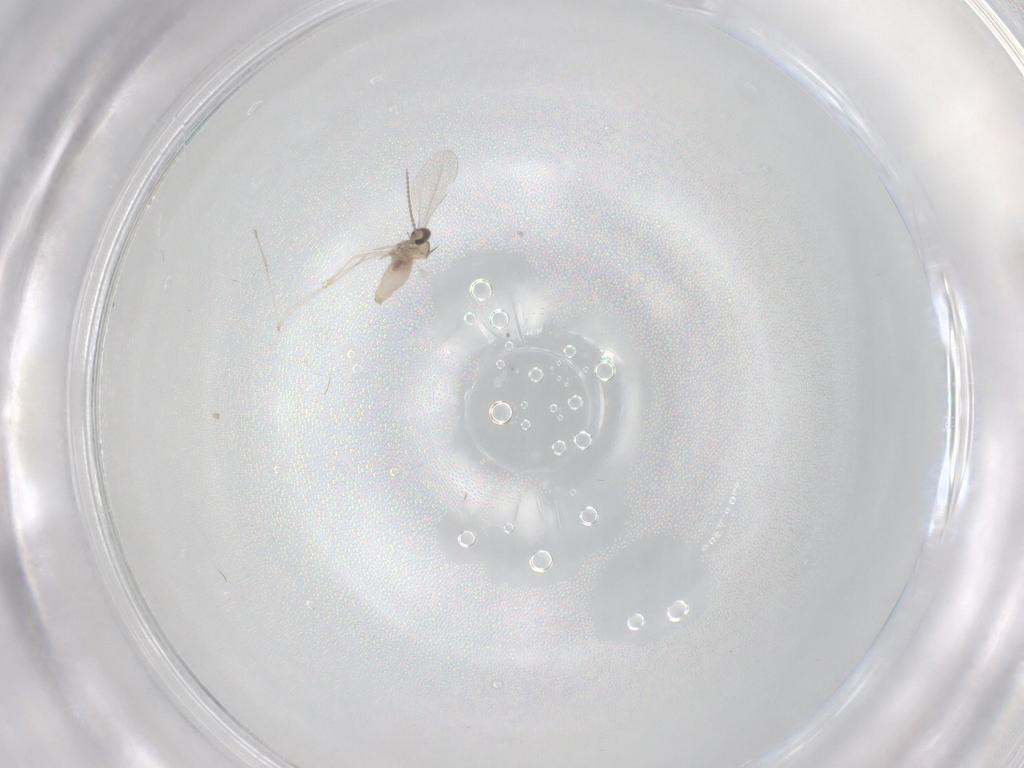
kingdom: Animalia
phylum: Arthropoda
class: Insecta
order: Diptera
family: Cecidomyiidae
